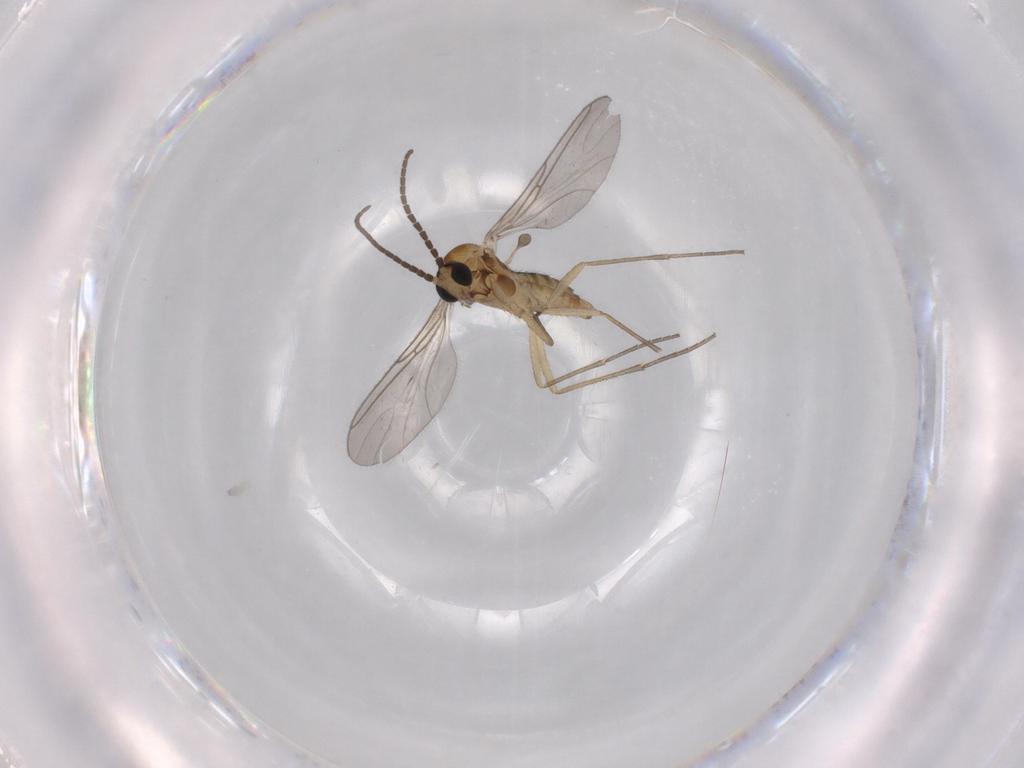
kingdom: Animalia
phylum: Arthropoda
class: Insecta
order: Diptera
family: Sciaridae
